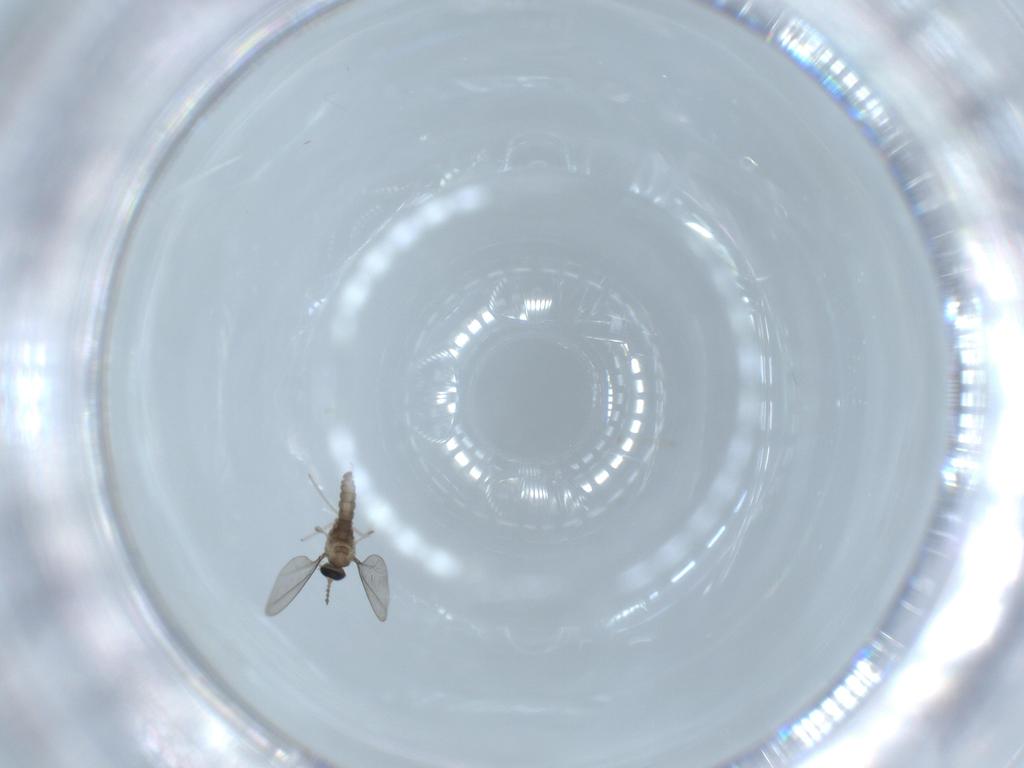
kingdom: Animalia
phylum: Arthropoda
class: Insecta
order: Diptera
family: Cecidomyiidae
